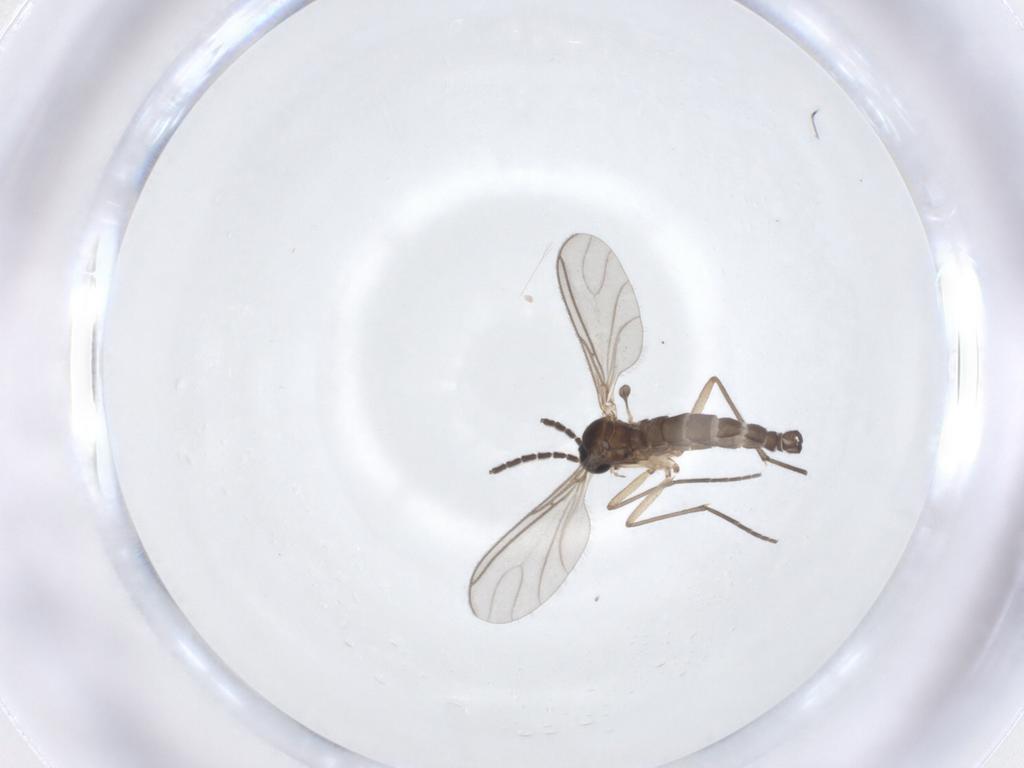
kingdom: Animalia
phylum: Arthropoda
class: Insecta
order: Diptera
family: Sciaridae
